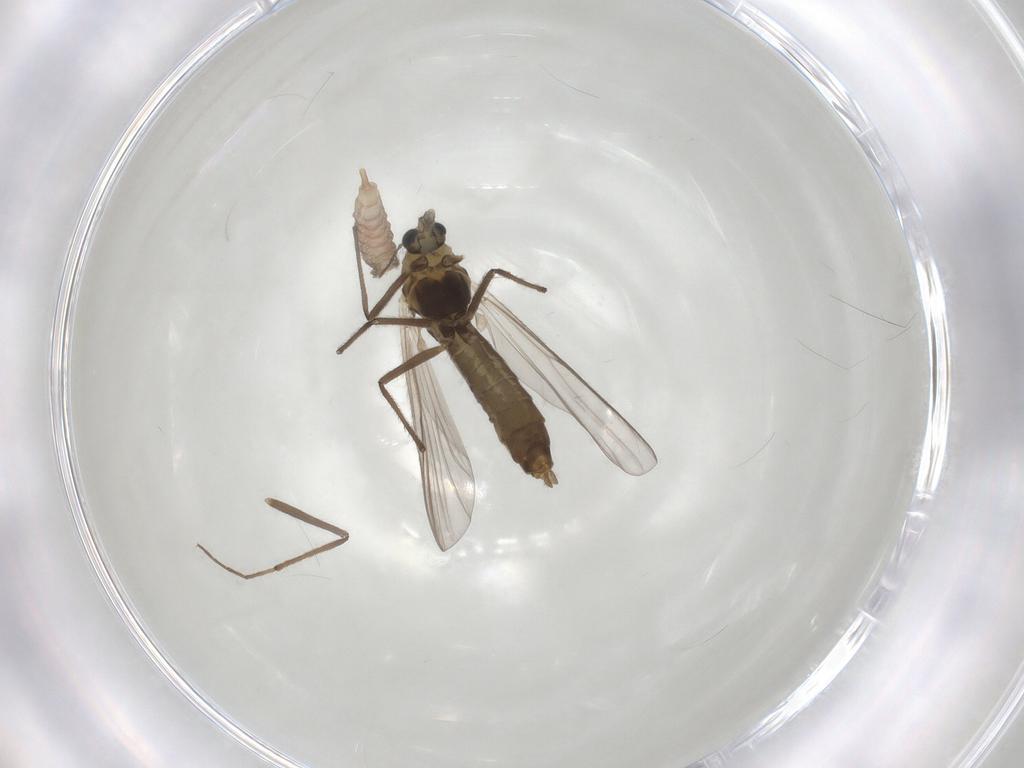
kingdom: Animalia
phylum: Arthropoda
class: Insecta
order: Diptera
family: Chironomidae
